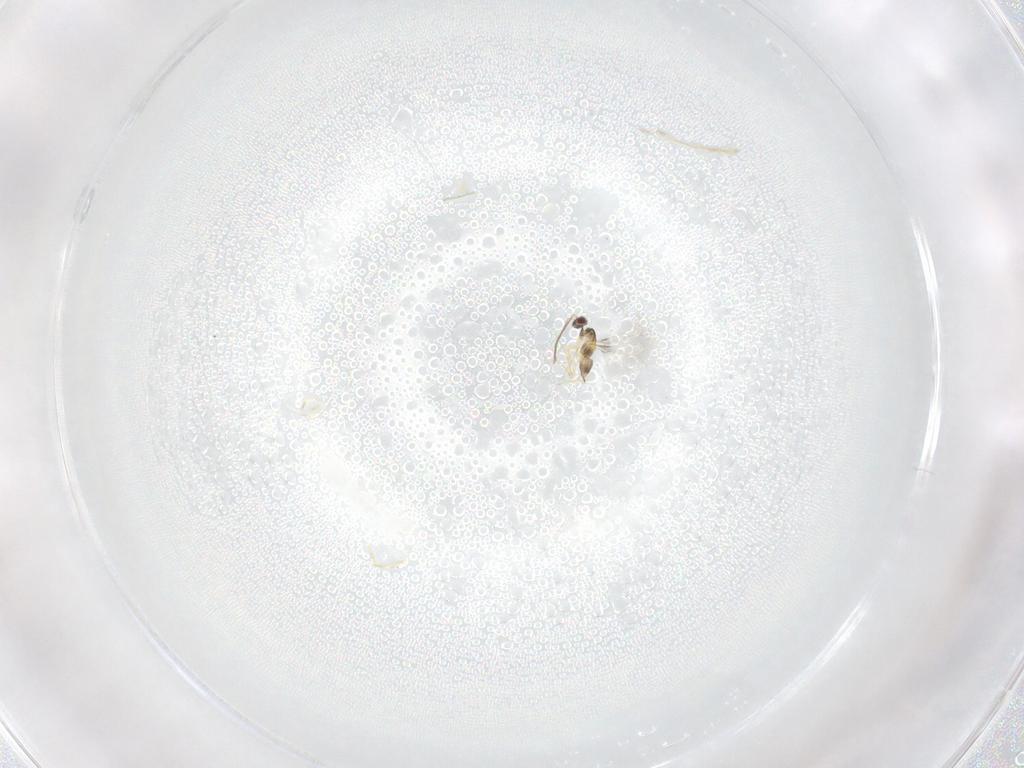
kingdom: Animalia
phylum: Arthropoda
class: Insecta
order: Hymenoptera
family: Mymaridae
